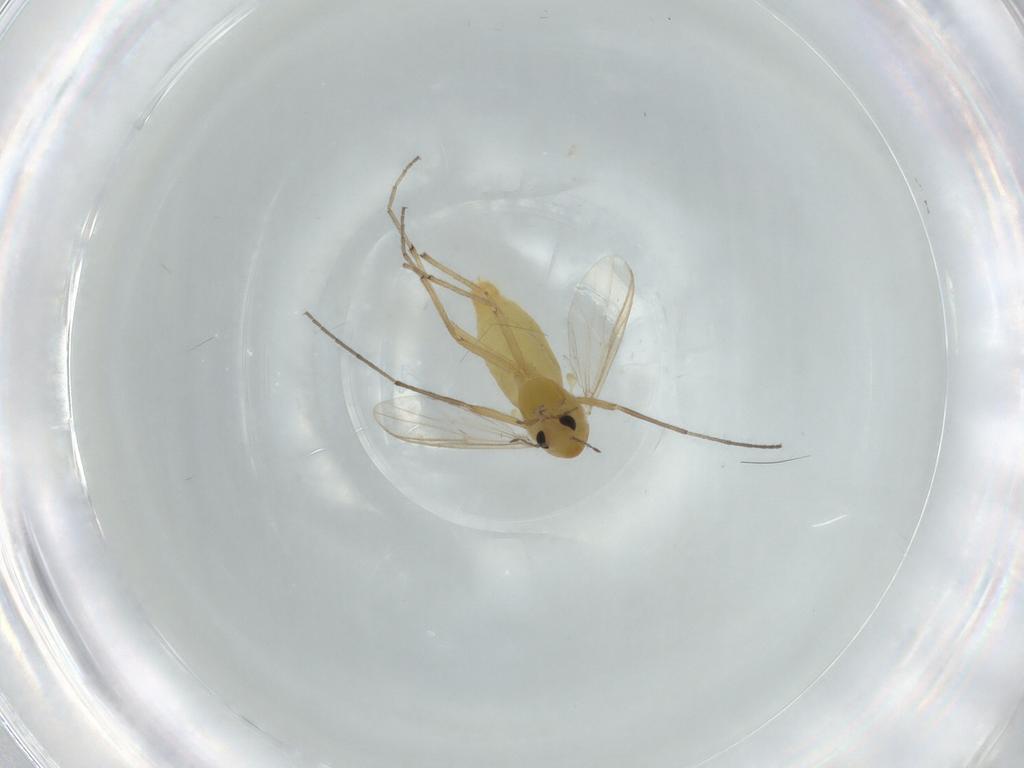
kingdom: Animalia
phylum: Arthropoda
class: Insecta
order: Diptera
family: Chironomidae
